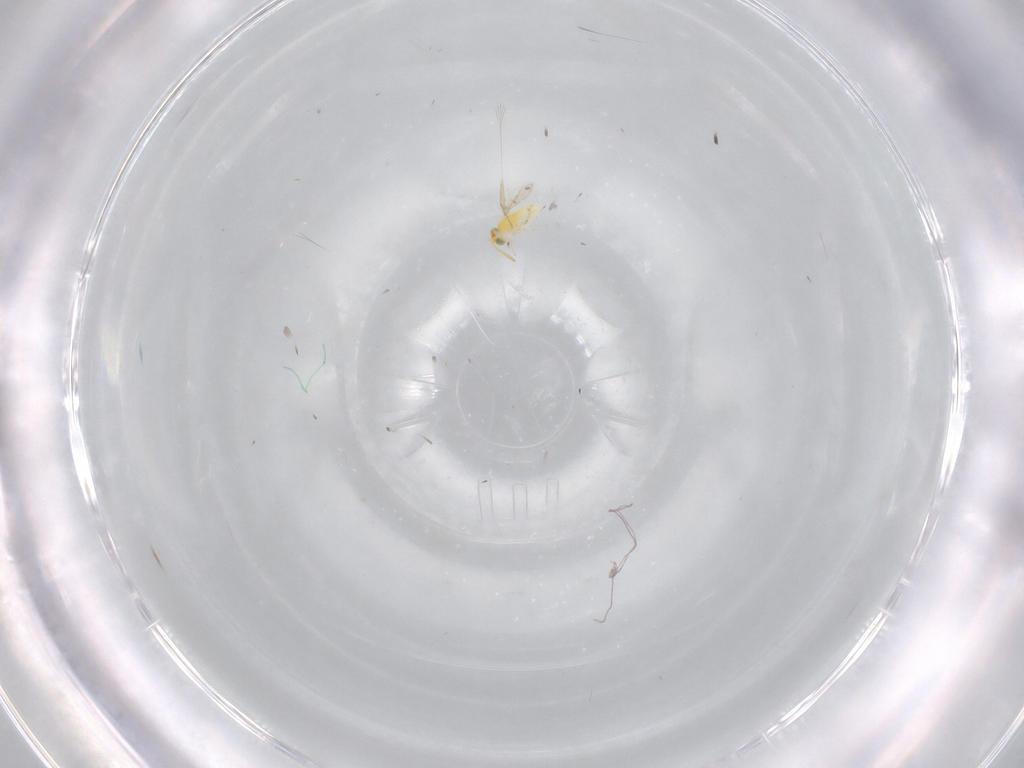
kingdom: Animalia
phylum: Arthropoda
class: Insecta
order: Hymenoptera
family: Aphelinidae
